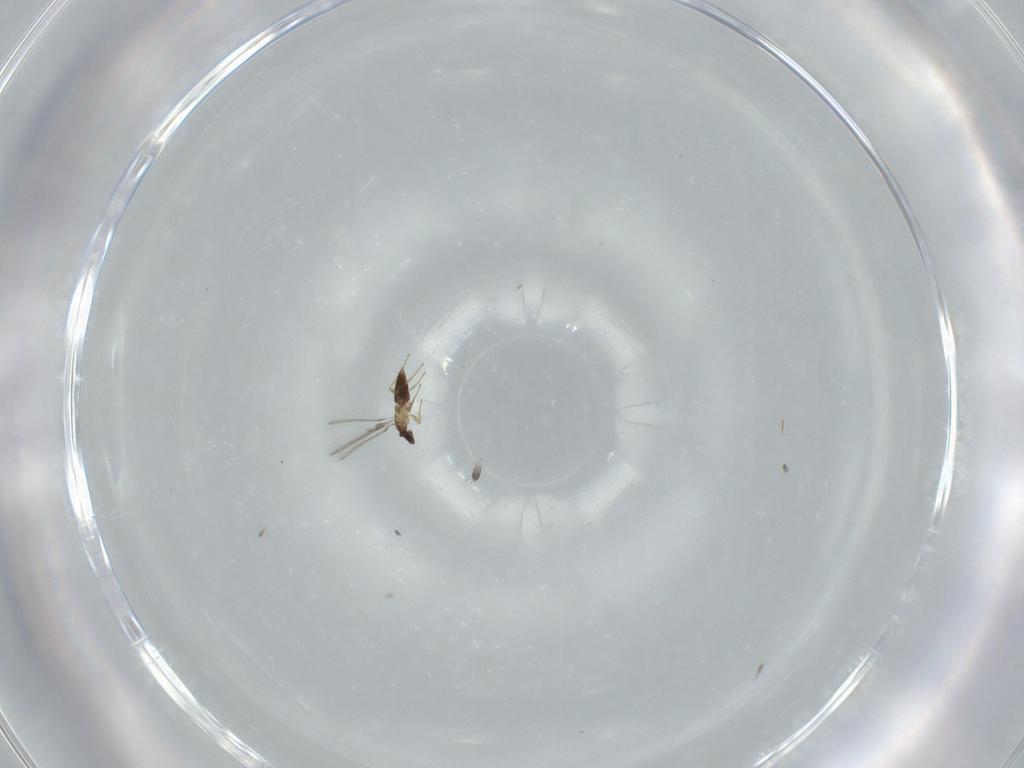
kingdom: Animalia
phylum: Arthropoda
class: Insecta
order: Hymenoptera
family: Mymaridae
